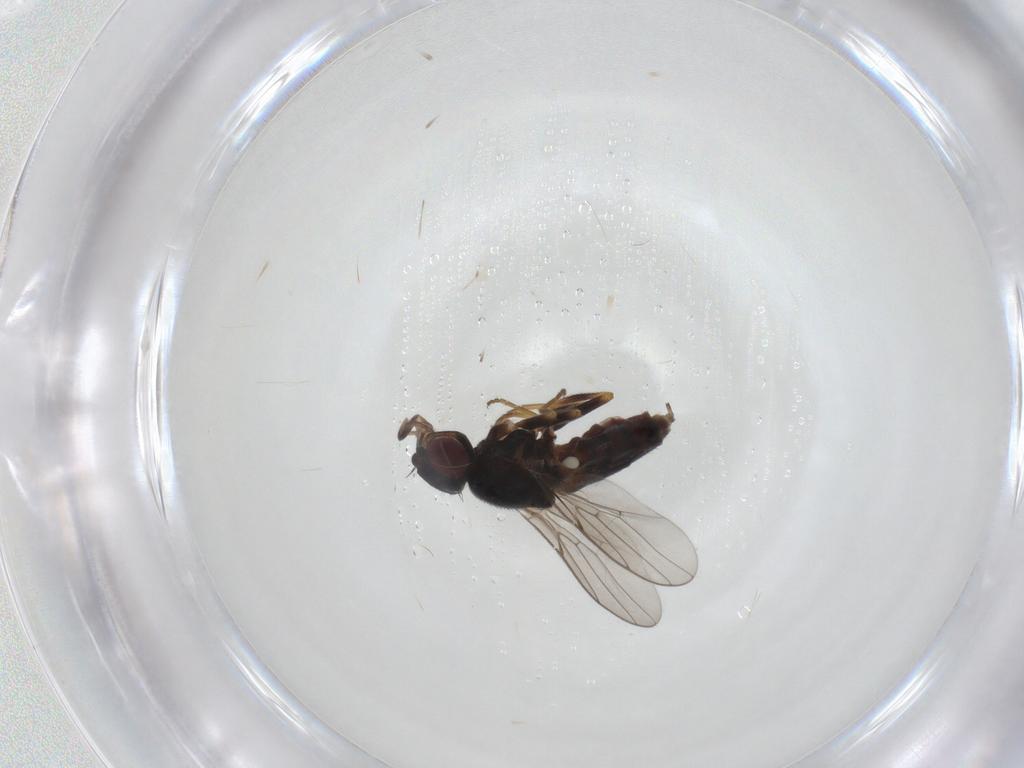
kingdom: Animalia
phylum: Arthropoda
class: Insecta
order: Diptera
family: Chloropidae
